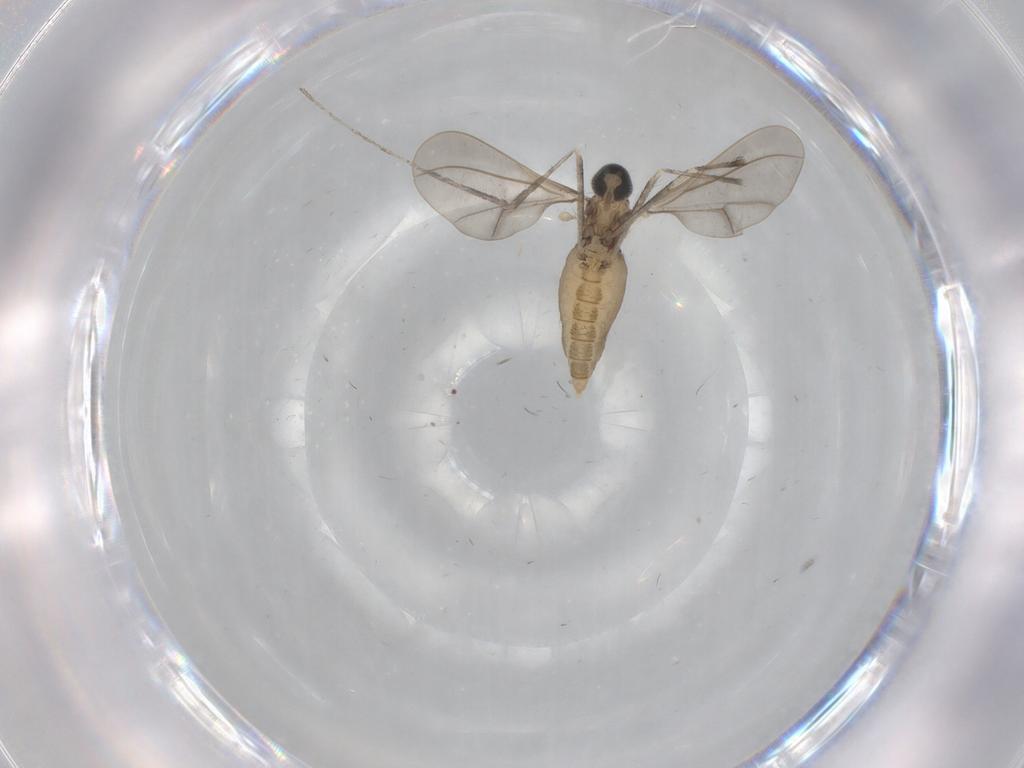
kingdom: Animalia
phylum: Arthropoda
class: Insecta
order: Diptera
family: Cecidomyiidae
